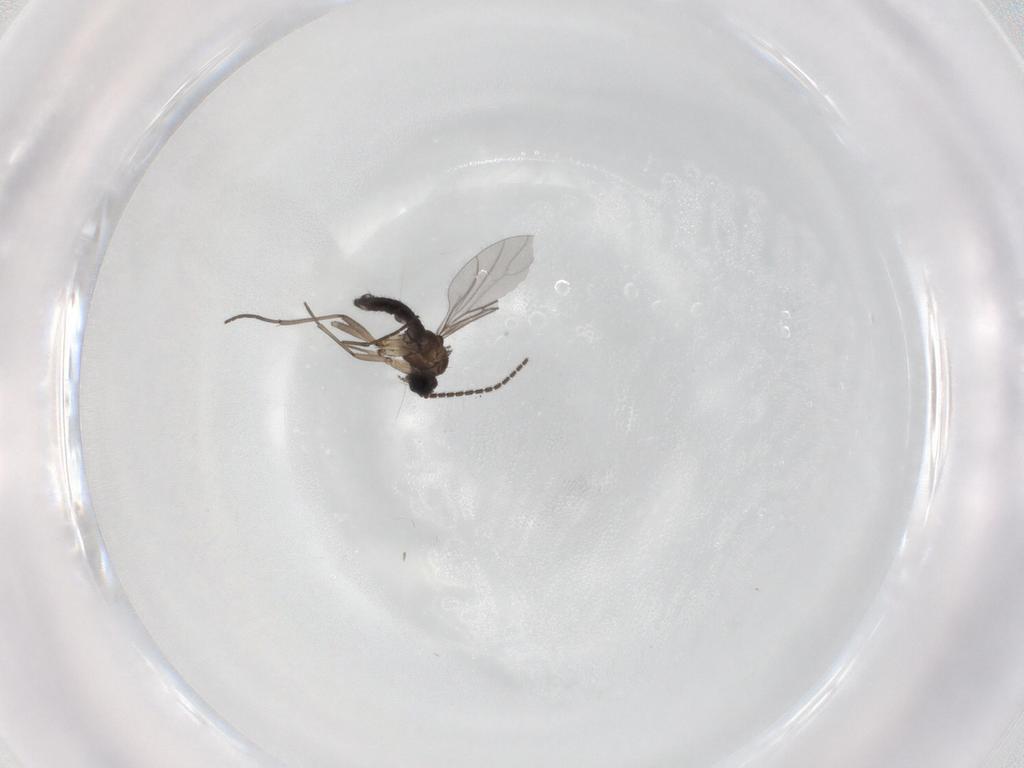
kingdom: Animalia
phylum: Arthropoda
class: Insecta
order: Diptera
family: Sciaridae
